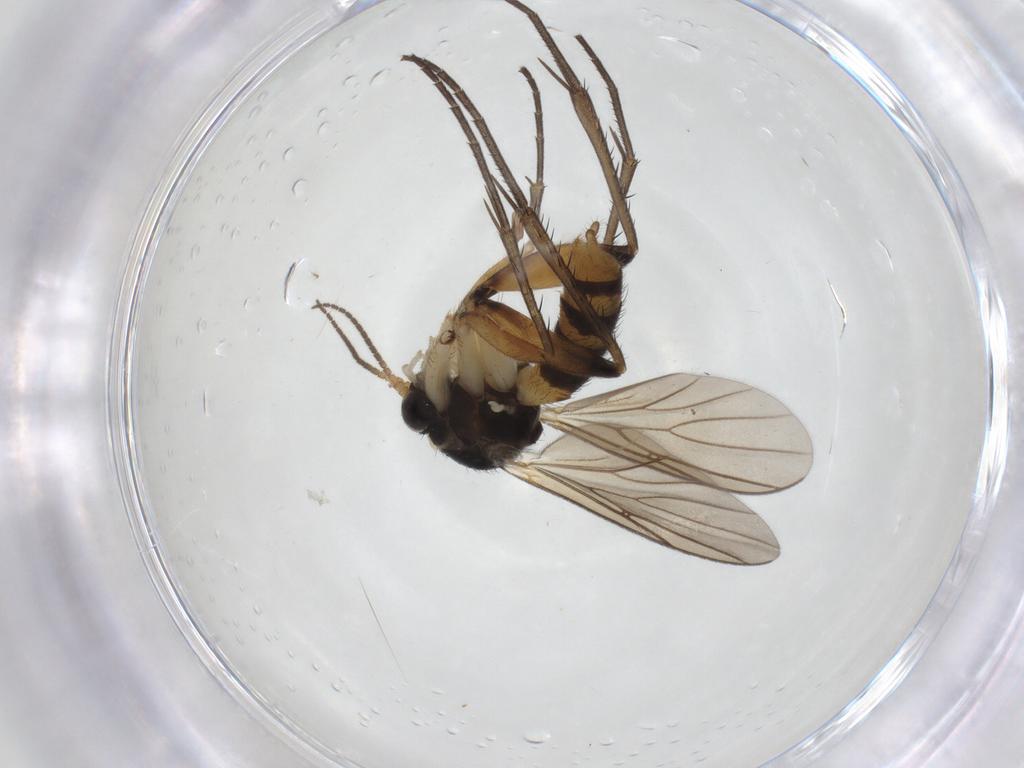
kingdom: Animalia
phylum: Arthropoda
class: Insecta
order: Diptera
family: Mycetophilidae
